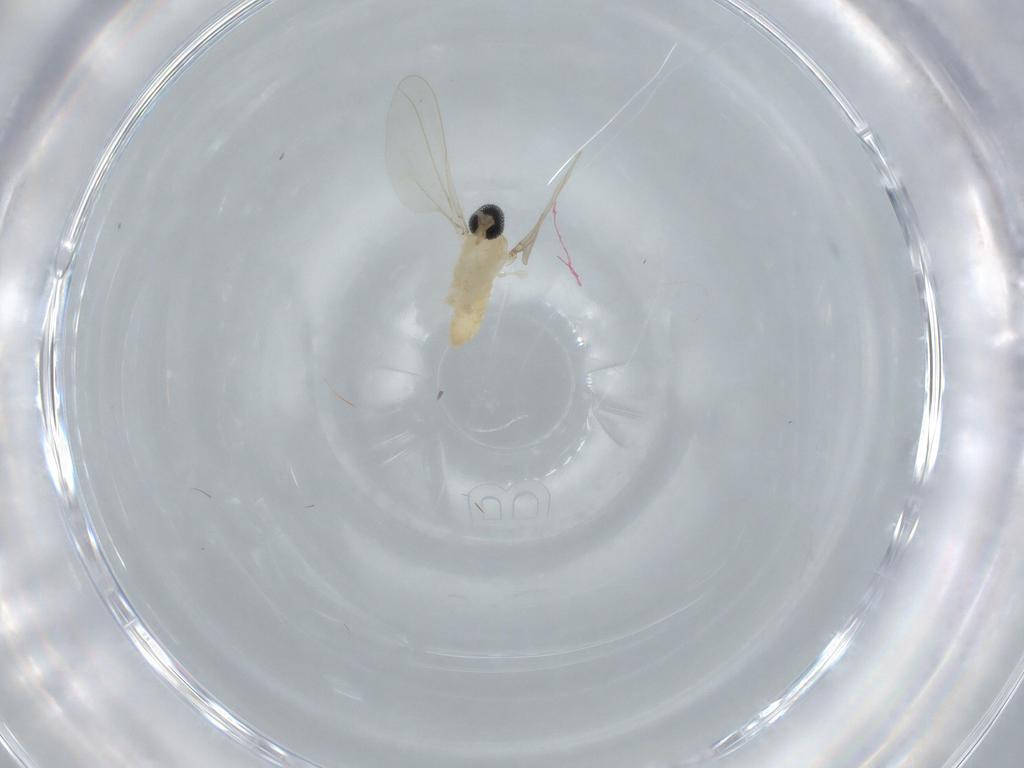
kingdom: Animalia
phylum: Arthropoda
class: Insecta
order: Diptera
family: Cecidomyiidae
